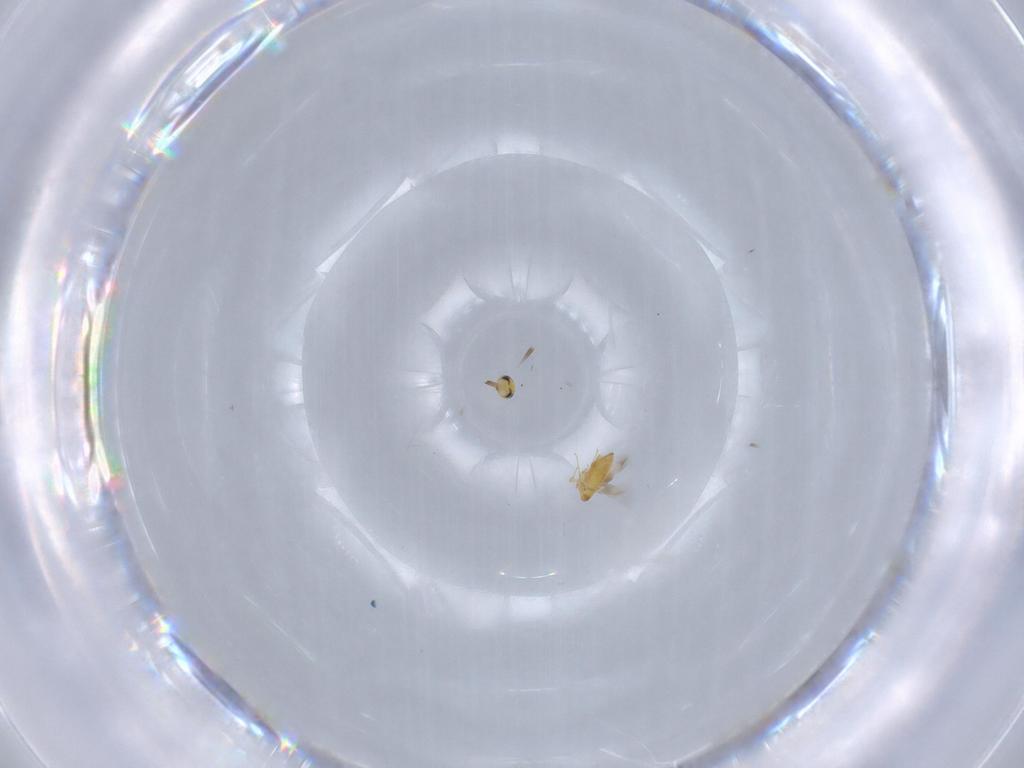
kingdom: Animalia
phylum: Arthropoda
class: Insecta
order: Hymenoptera
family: Signiphoridae
